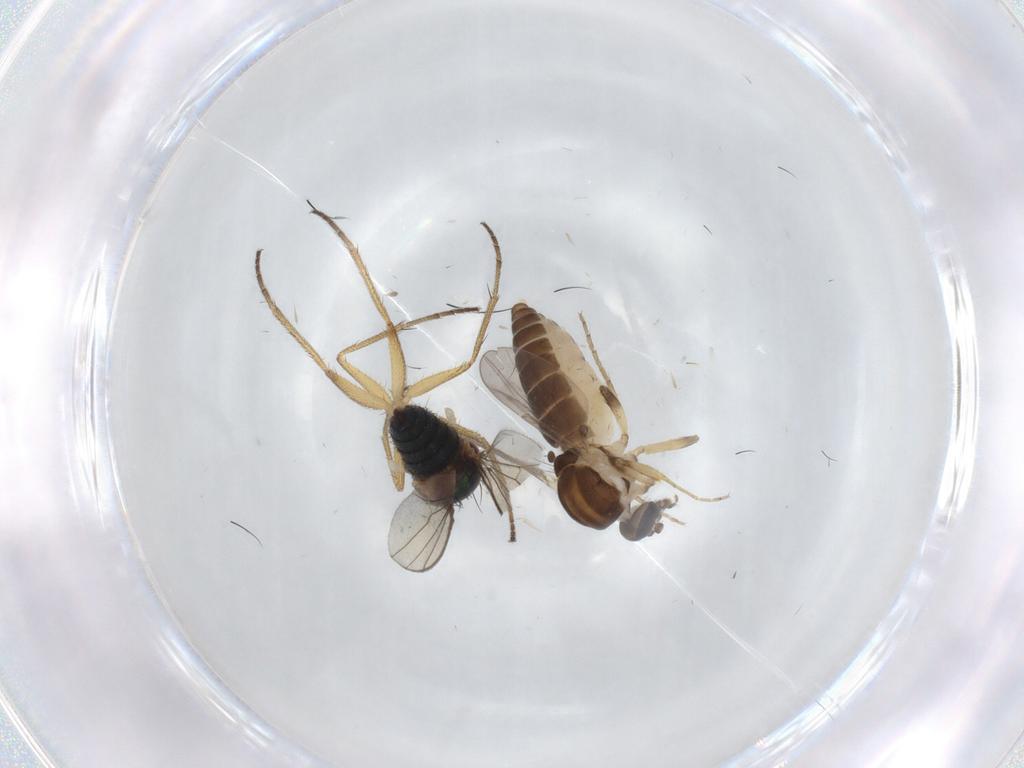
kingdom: Animalia
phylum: Arthropoda
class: Insecta
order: Diptera
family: Ceratopogonidae
